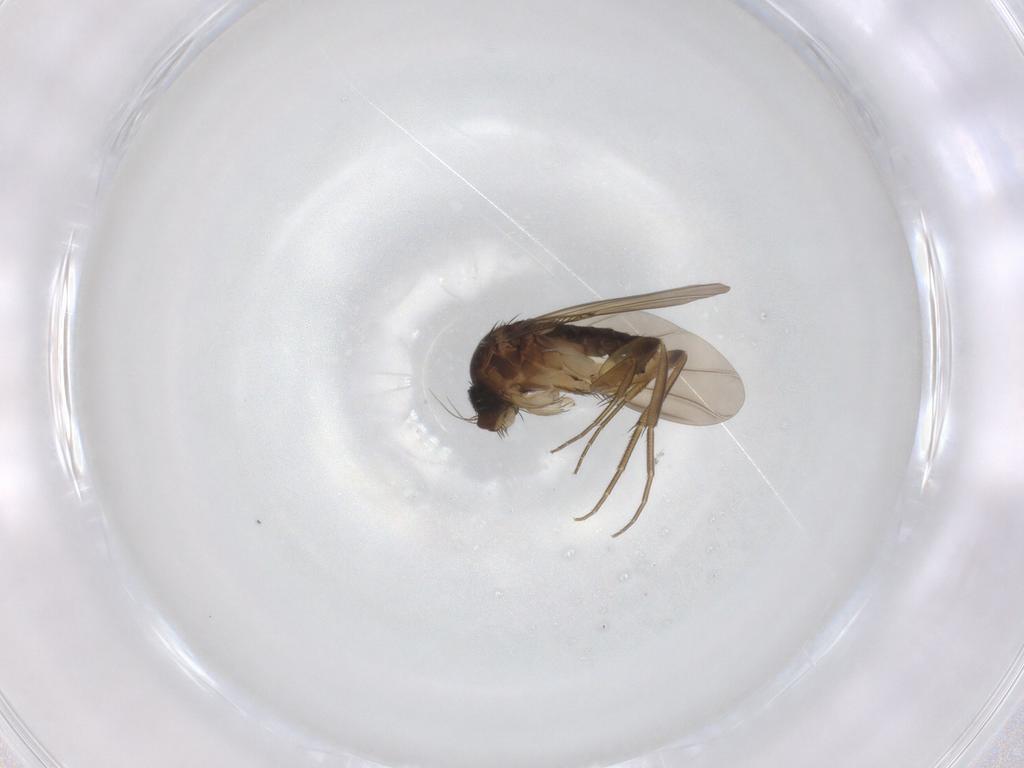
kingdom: Animalia
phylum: Arthropoda
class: Insecta
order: Diptera
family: Phoridae
